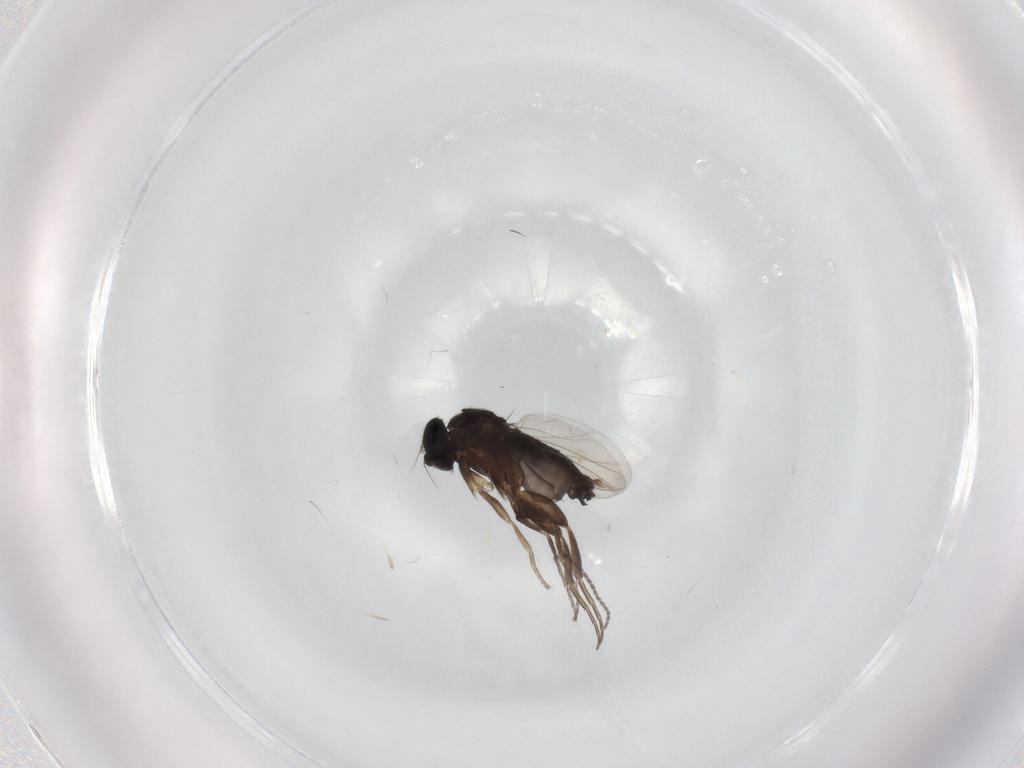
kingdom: Animalia
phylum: Arthropoda
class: Insecta
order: Diptera
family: Phoridae
